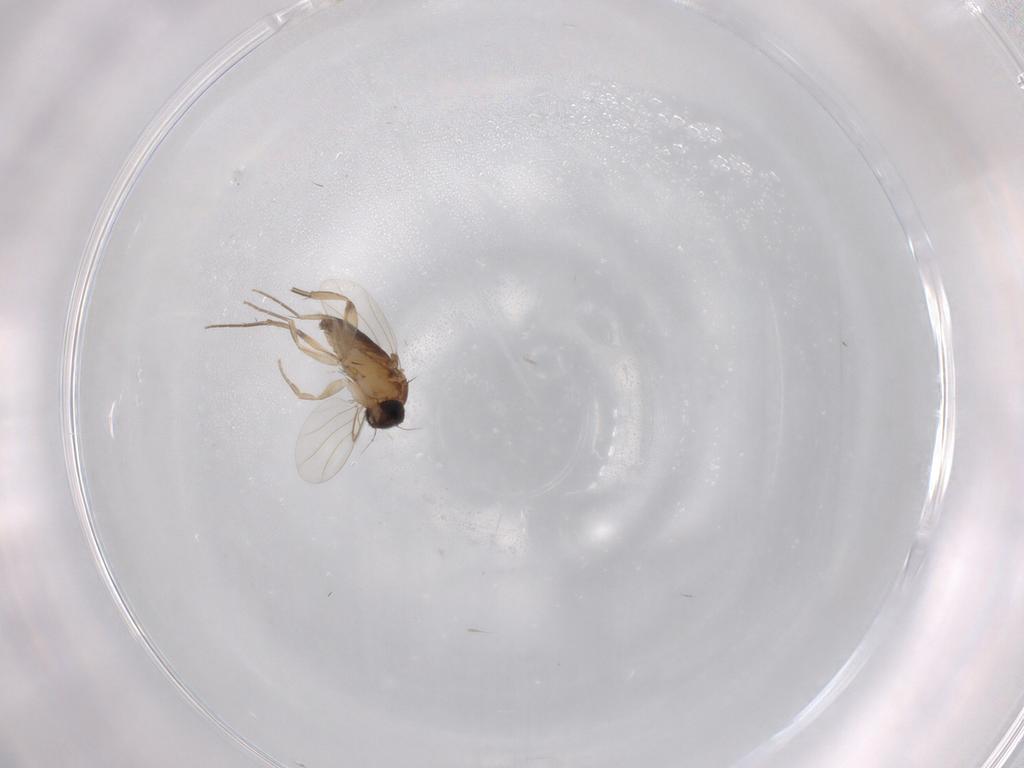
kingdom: Animalia
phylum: Arthropoda
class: Insecta
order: Diptera
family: Phoridae
